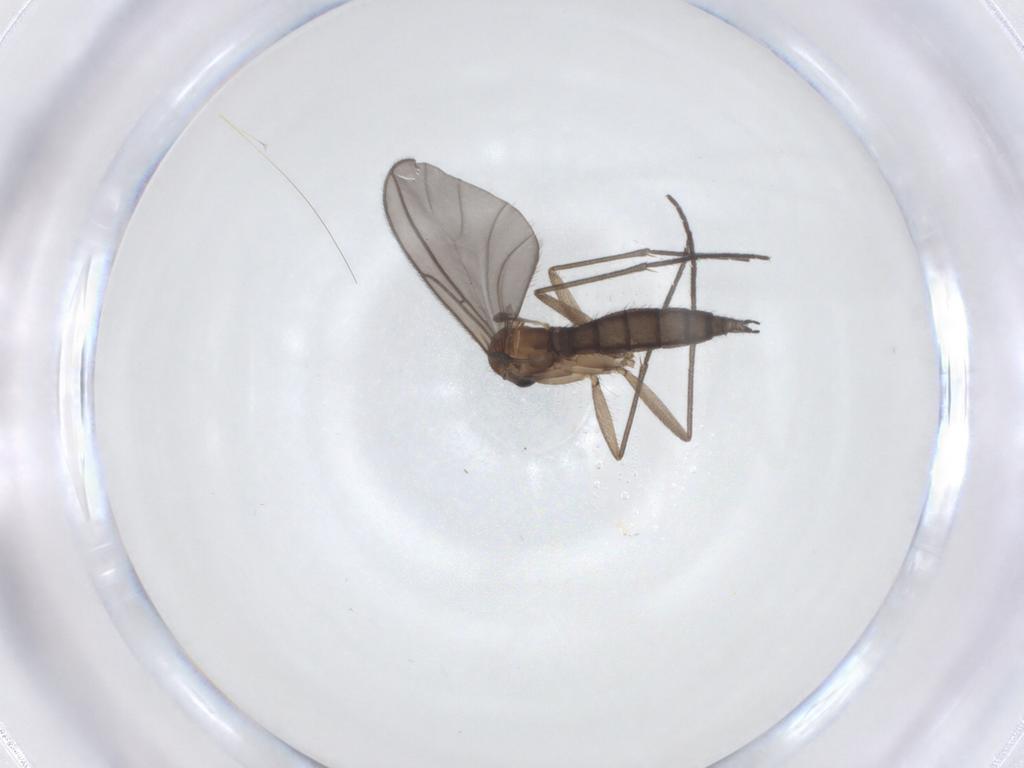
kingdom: Animalia
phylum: Arthropoda
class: Insecta
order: Diptera
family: Sciaridae
